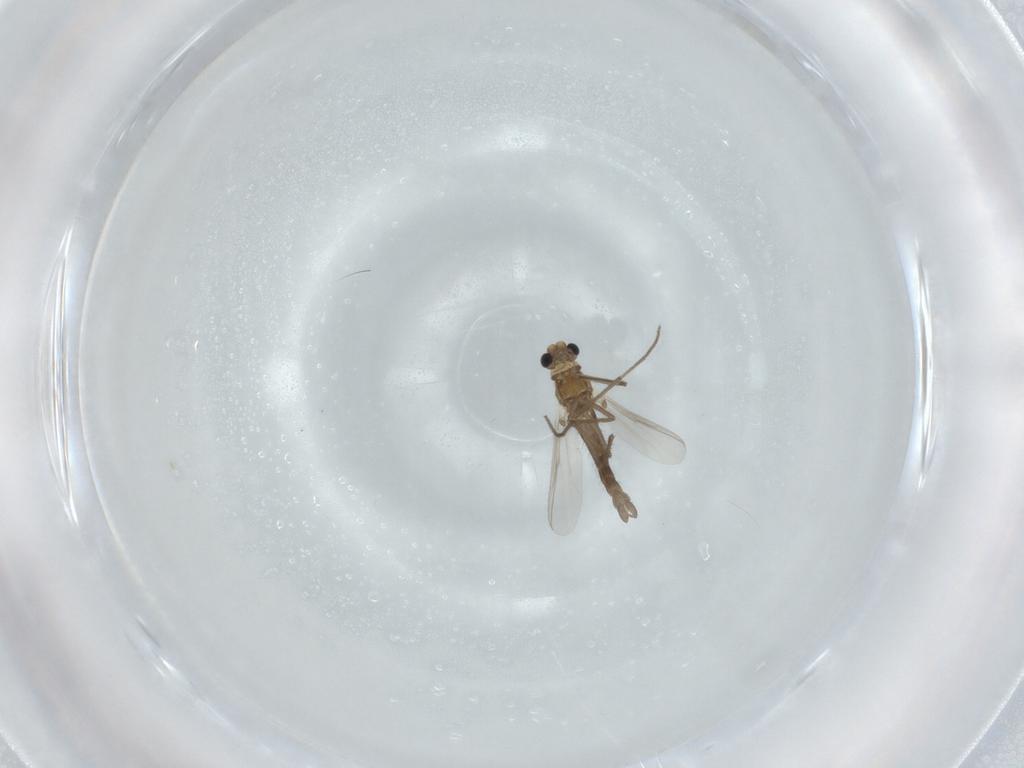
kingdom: Animalia
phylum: Arthropoda
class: Insecta
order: Diptera
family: Chironomidae
